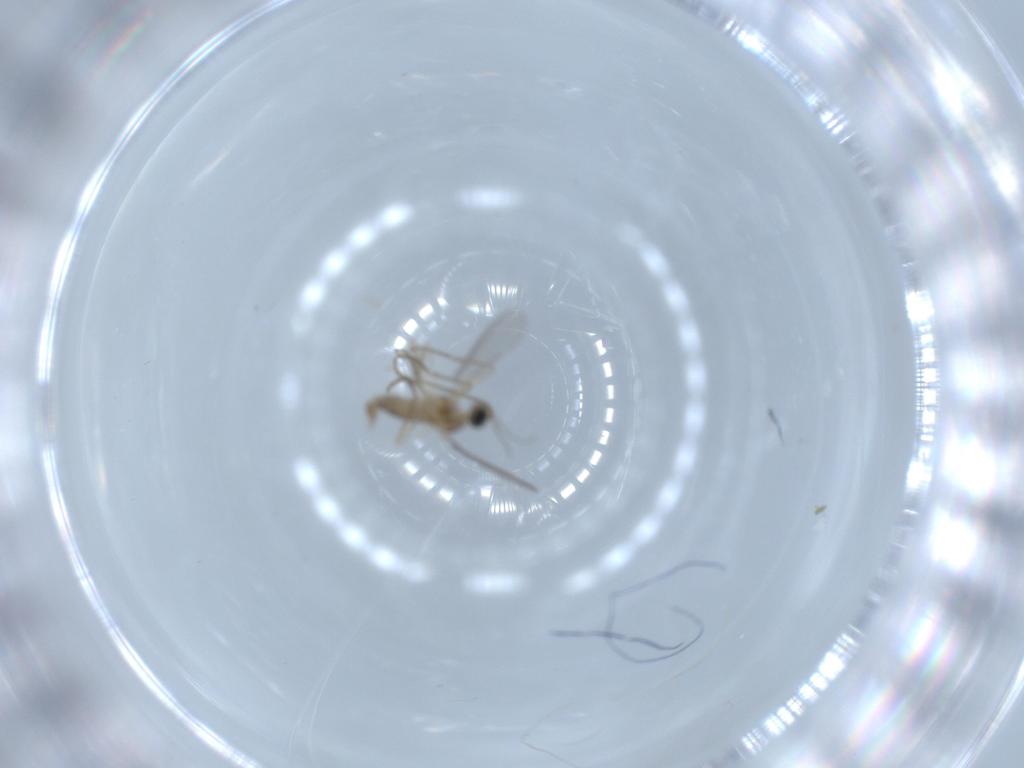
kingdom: Animalia
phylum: Arthropoda
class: Insecta
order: Diptera
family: Cecidomyiidae
